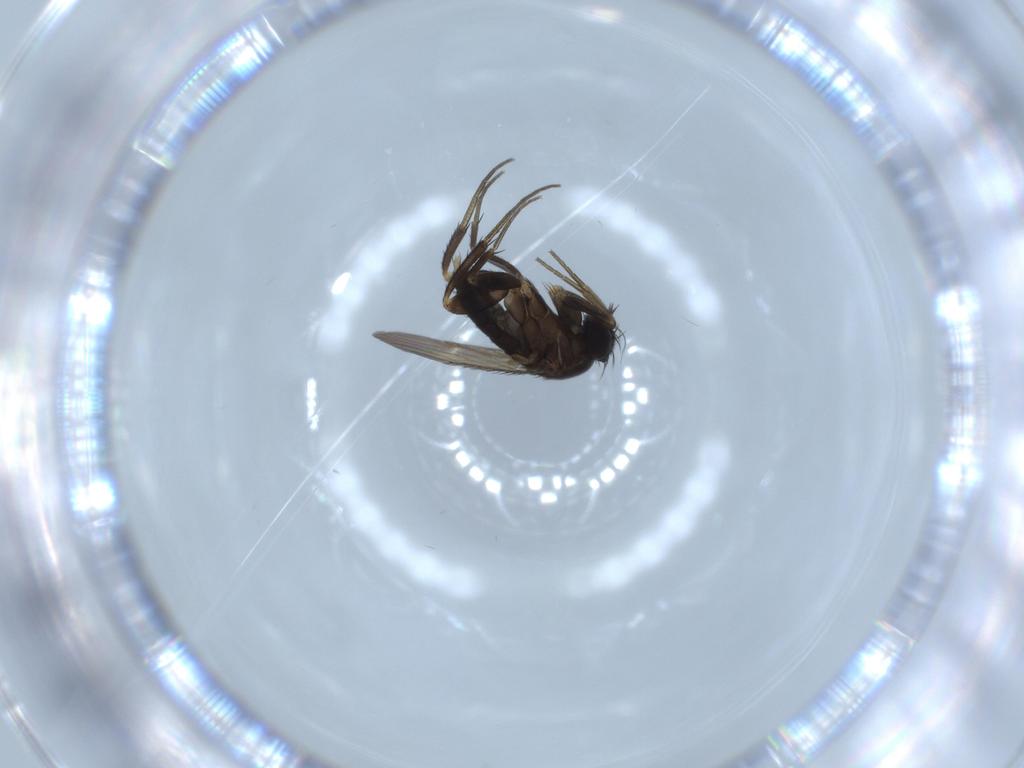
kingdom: Animalia
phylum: Arthropoda
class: Insecta
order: Diptera
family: Phoridae
